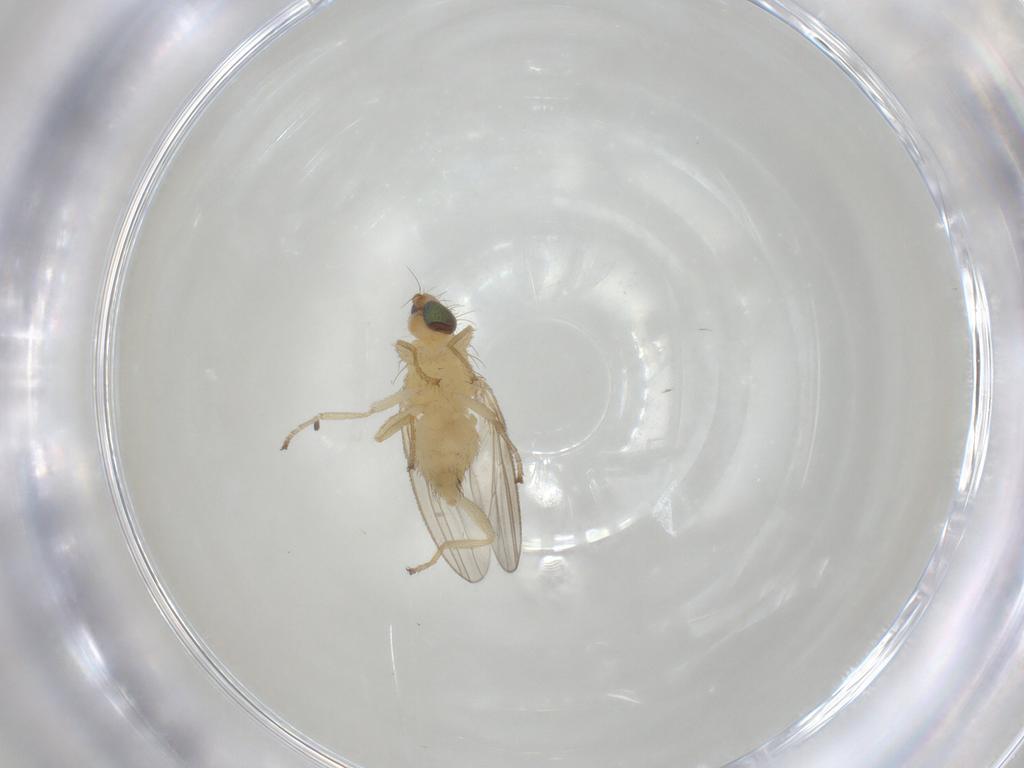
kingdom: Animalia
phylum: Arthropoda
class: Insecta
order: Diptera
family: Chyromyidae
